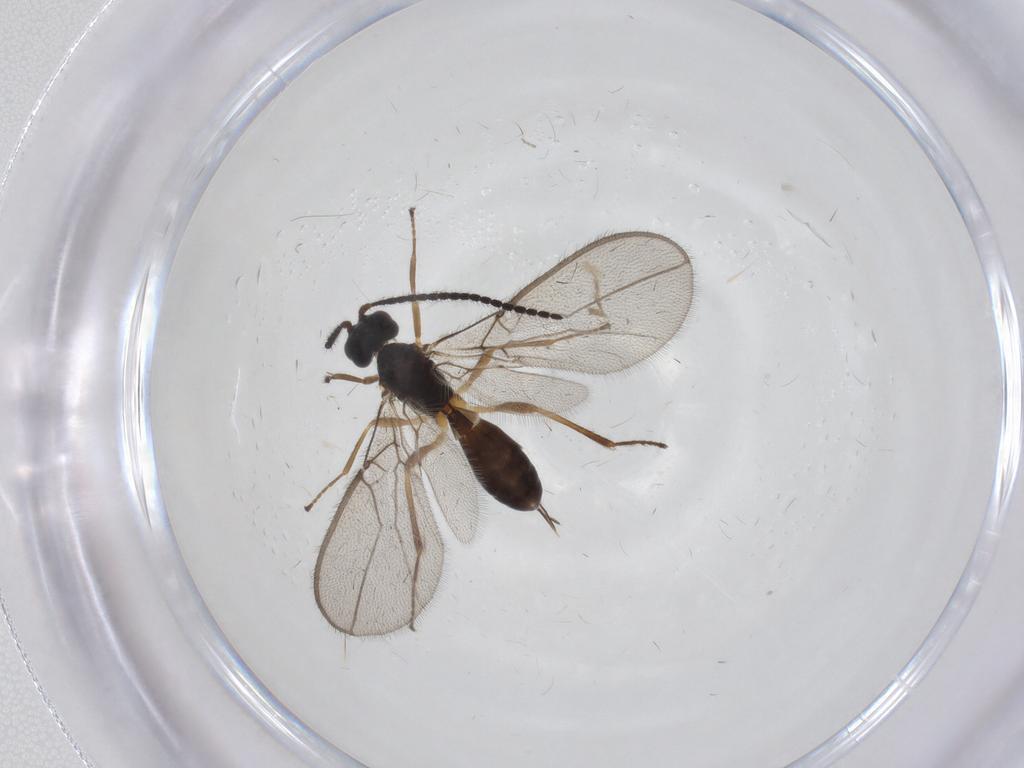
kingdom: Animalia
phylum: Arthropoda
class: Insecta
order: Hymenoptera
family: Braconidae
